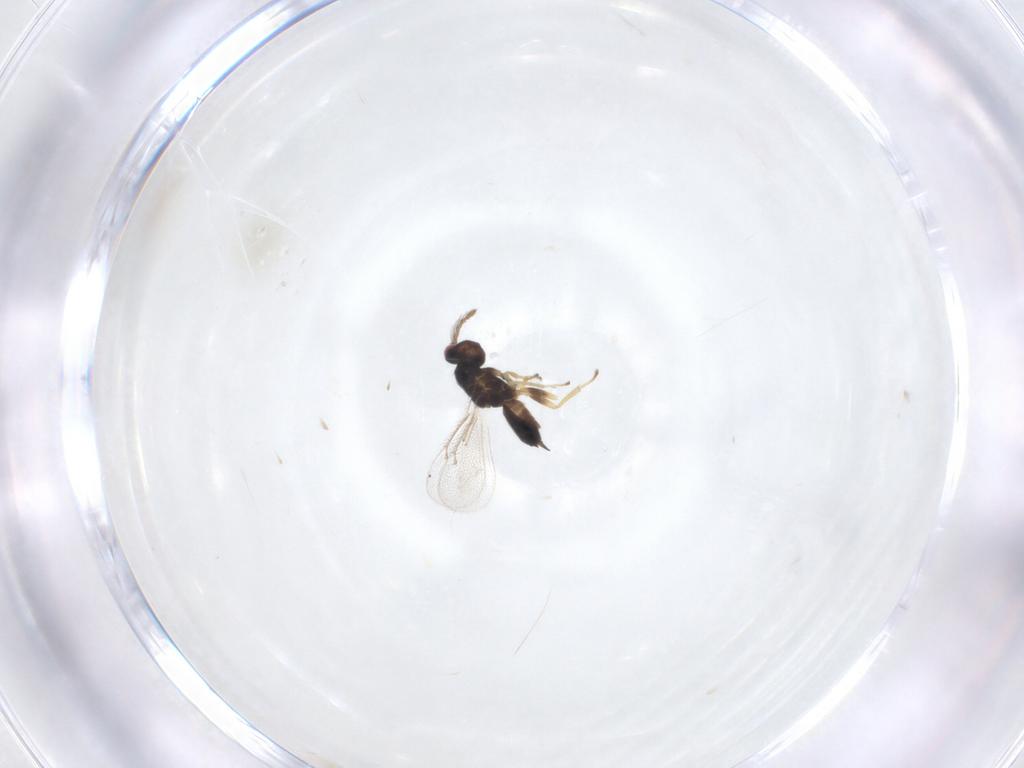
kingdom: Animalia
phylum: Arthropoda
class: Insecta
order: Hymenoptera
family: Eulophidae
